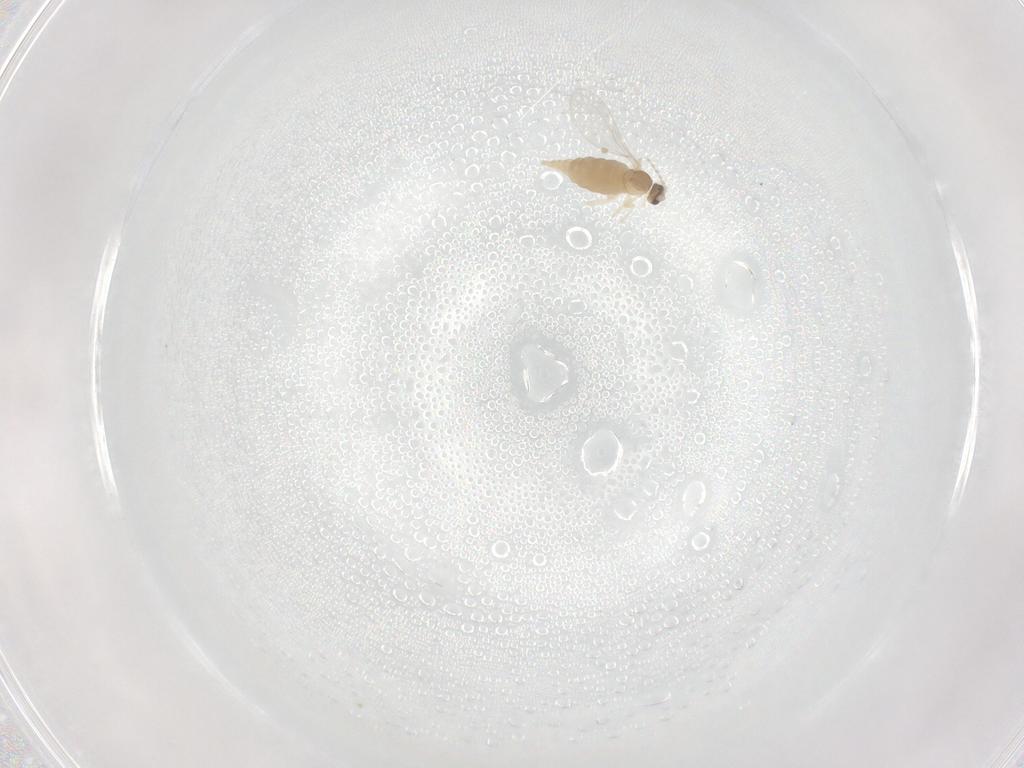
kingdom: Animalia
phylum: Arthropoda
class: Insecta
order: Diptera
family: Cecidomyiidae
